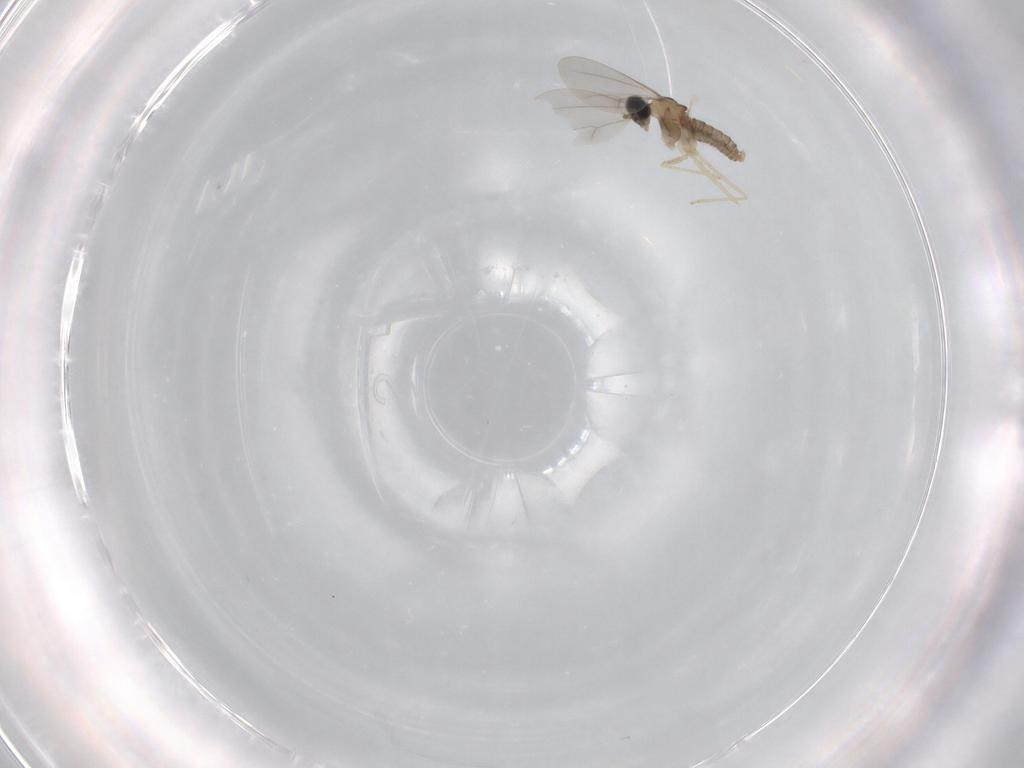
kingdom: Animalia
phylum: Arthropoda
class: Insecta
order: Diptera
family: Cecidomyiidae
